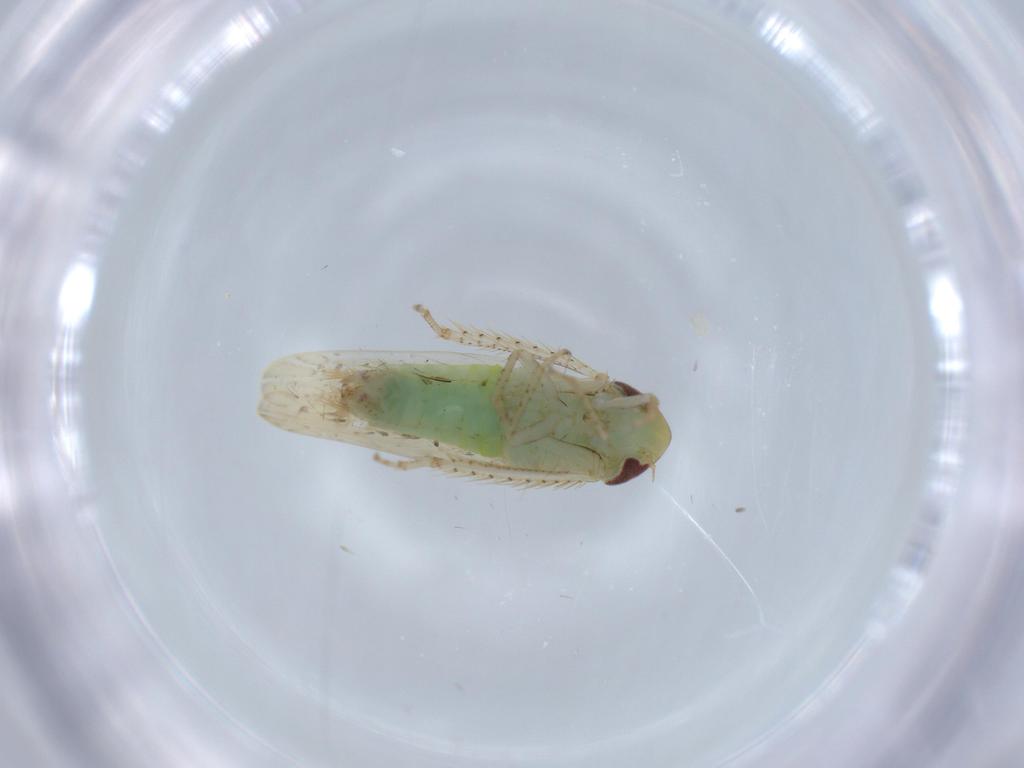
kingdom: Animalia
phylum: Arthropoda
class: Insecta
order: Hemiptera
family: Cicadellidae
